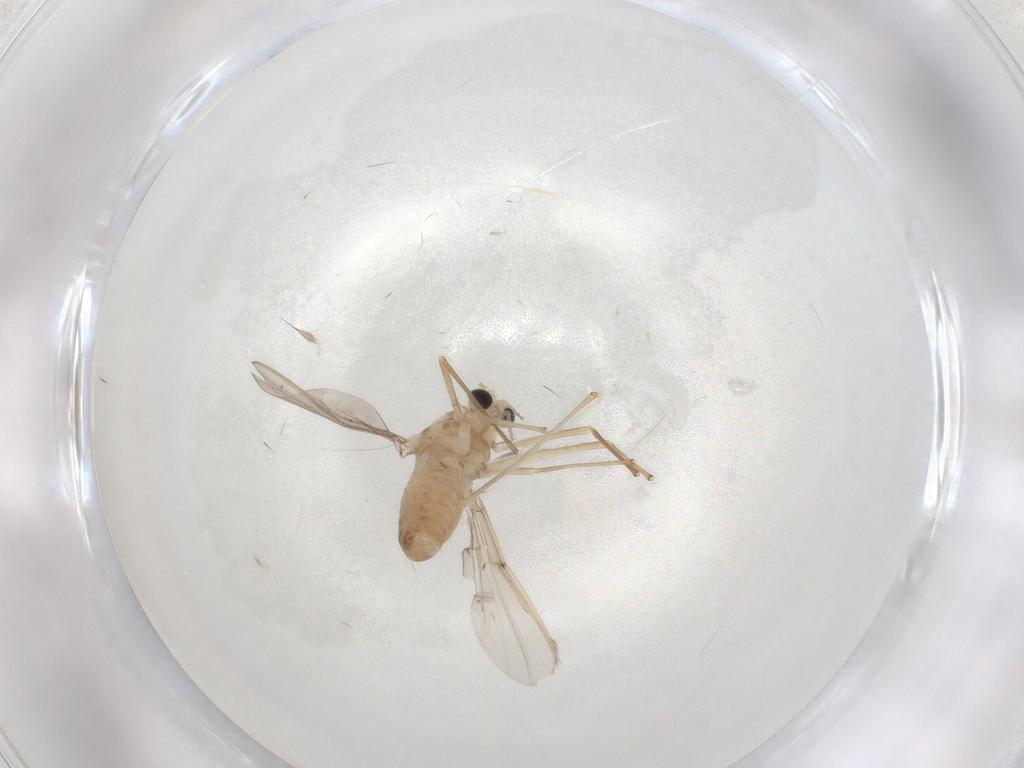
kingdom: Animalia
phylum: Arthropoda
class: Insecta
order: Diptera
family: Chironomidae
